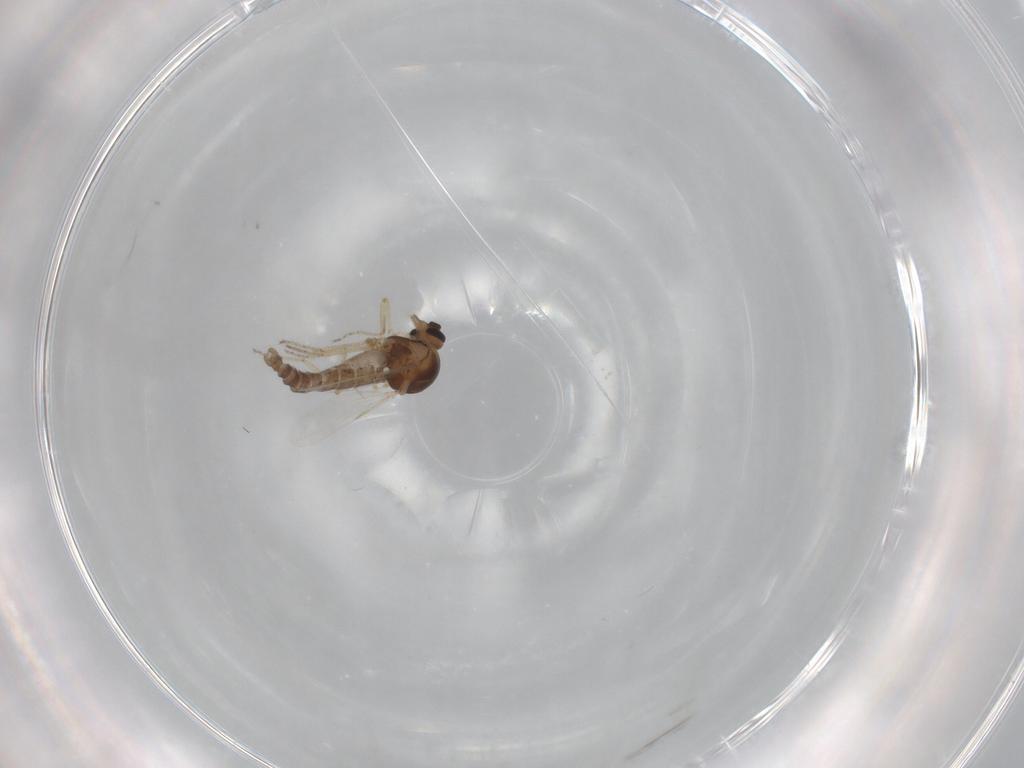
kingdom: Animalia
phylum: Arthropoda
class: Insecta
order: Diptera
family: Ceratopogonidae
